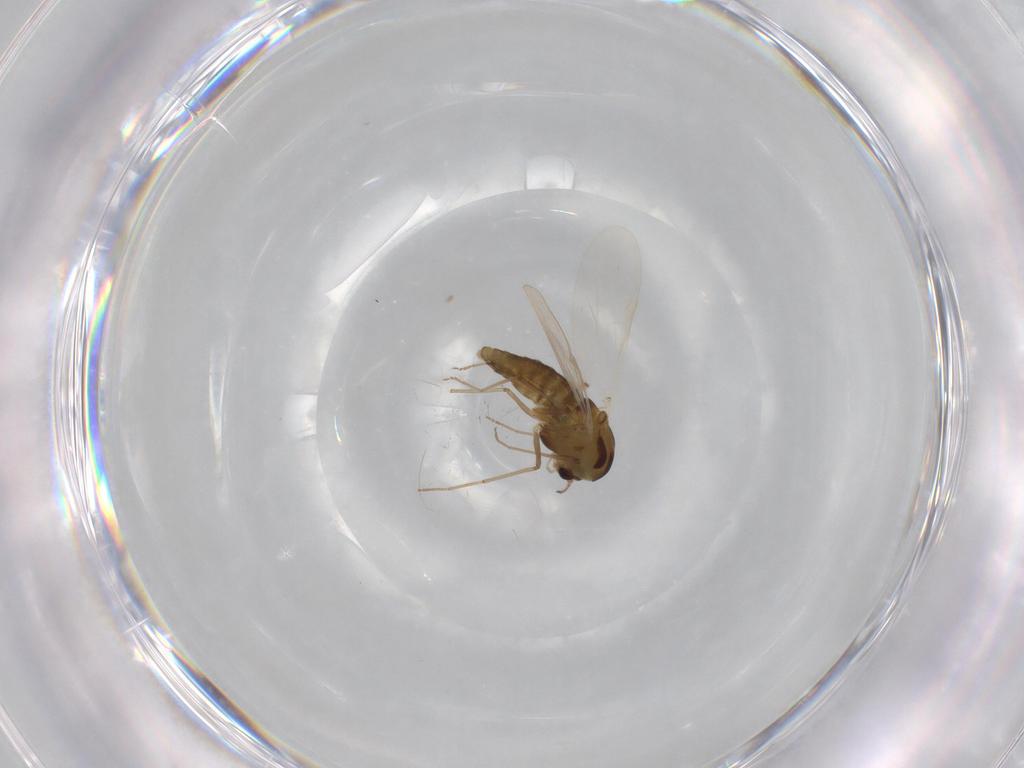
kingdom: Animalia
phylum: Arthropoda
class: Insecta
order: Diptera
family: Chironomidae
